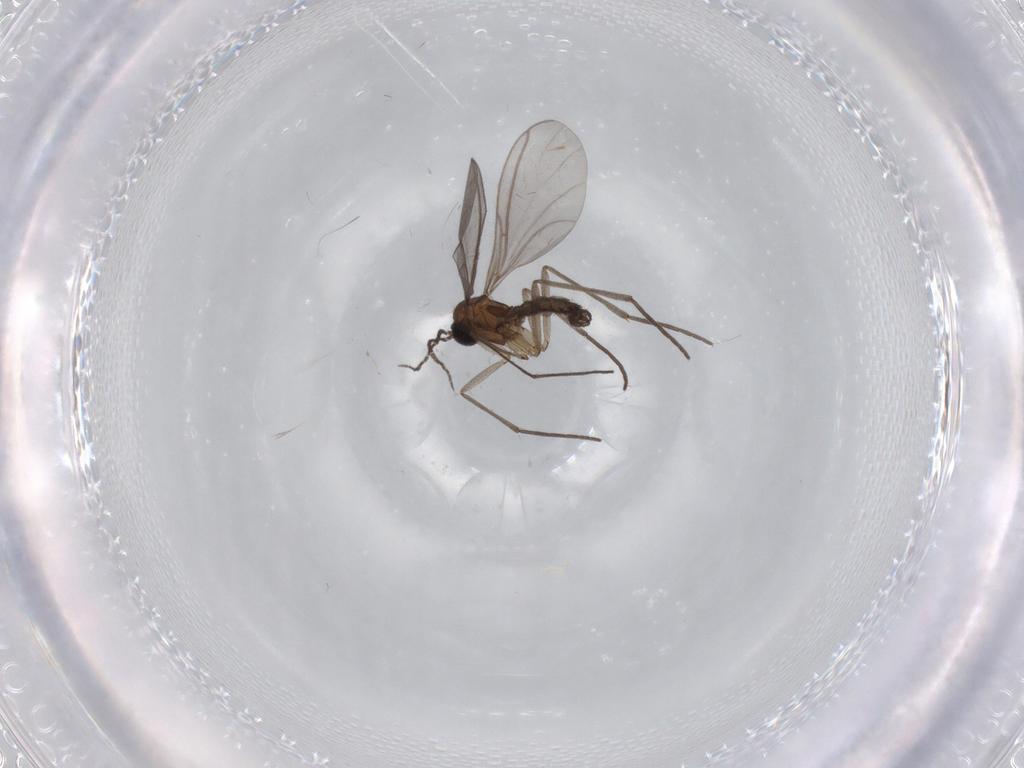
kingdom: Animalia
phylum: Arthropoda
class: Insecta
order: Diptera
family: Sciaridae
